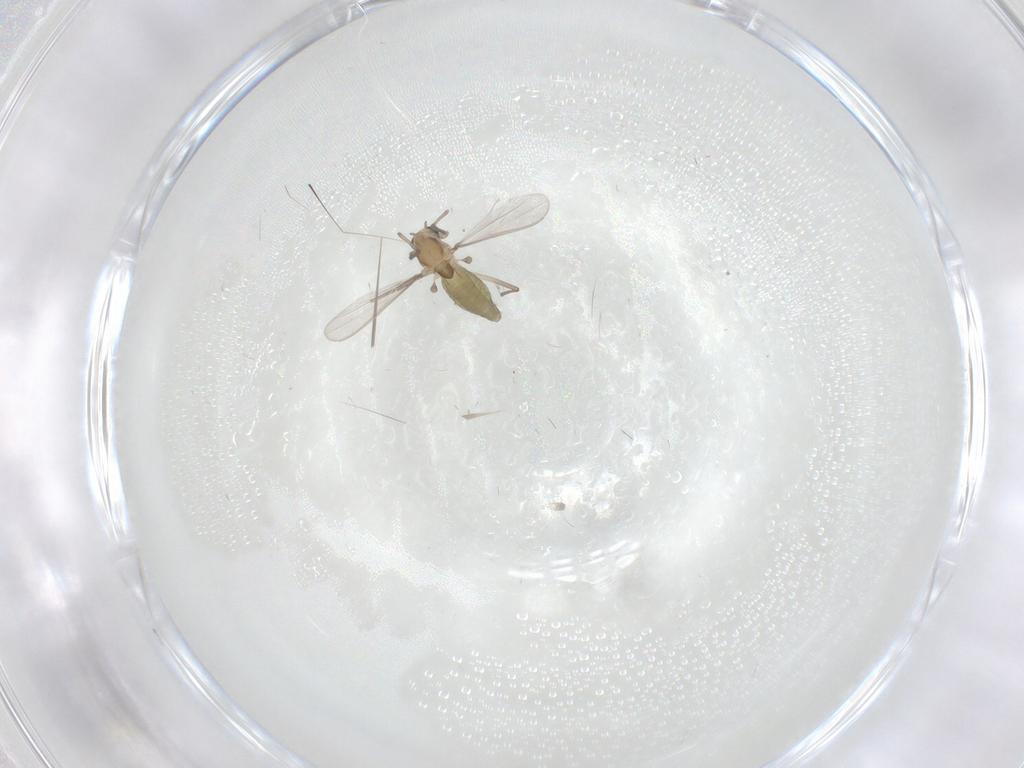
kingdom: Animalia
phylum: Arthropoda
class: Insecta
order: Diptera
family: Chironomidae
